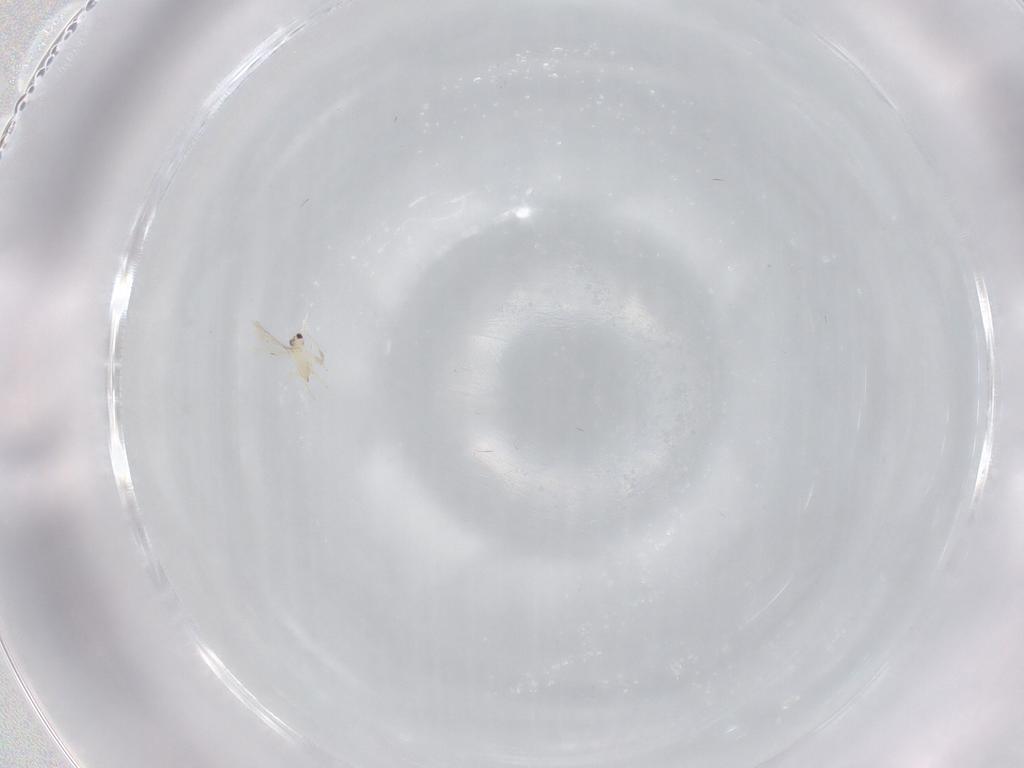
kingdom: Animalia
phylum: Arthropoda
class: Insecta
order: Hymenoptera
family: Mymaridae
